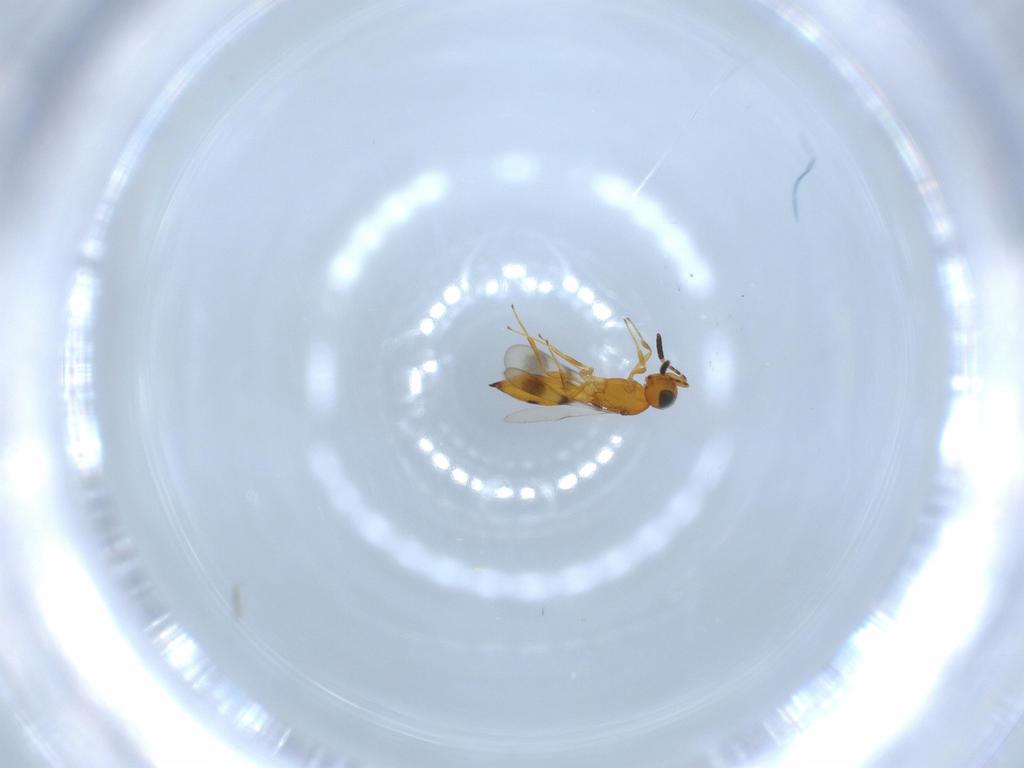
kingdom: Animalia
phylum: Arthropoda
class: Insecta
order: Hymenoptera
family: Scelionidae
